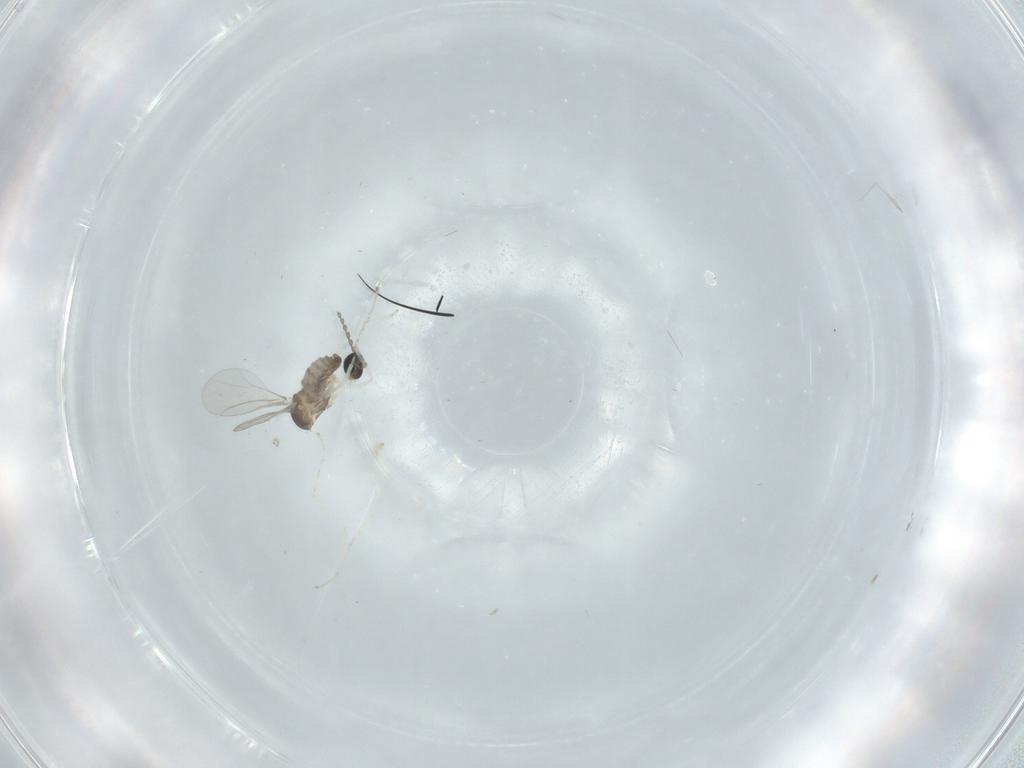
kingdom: Animalia
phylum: Arthropoda
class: Insecta
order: Diptera
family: Cecidomyiidae
